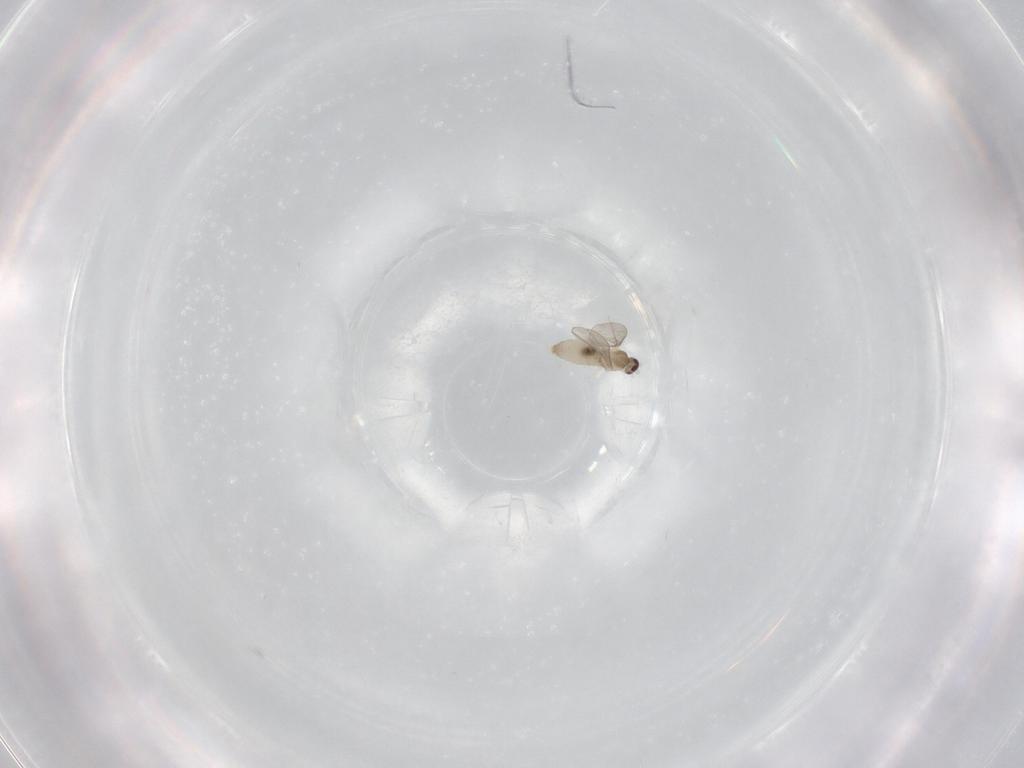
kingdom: Animalia
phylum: Arthropoda
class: Insecta
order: Diptera
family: Cecidomyiidae
